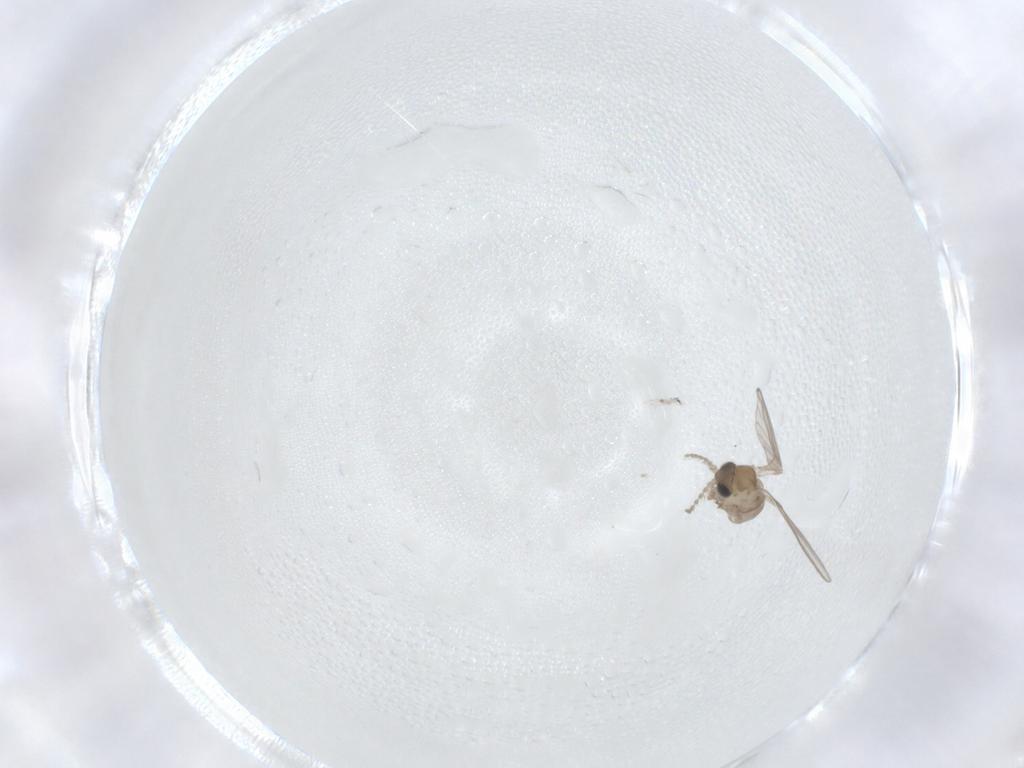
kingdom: Animalia
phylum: Arthropoda
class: Insecta
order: Diptera
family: Psychodidae
